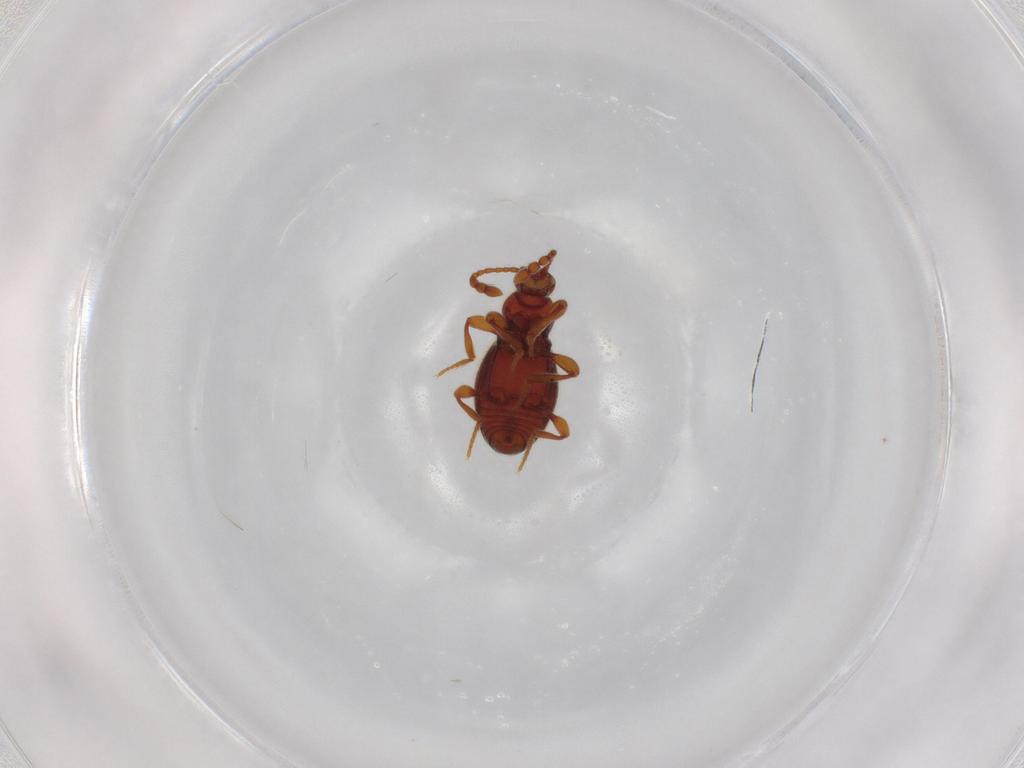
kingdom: Animalia
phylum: Arthropoda
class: Insecta
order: Coleoptera
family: Staphylinidae
